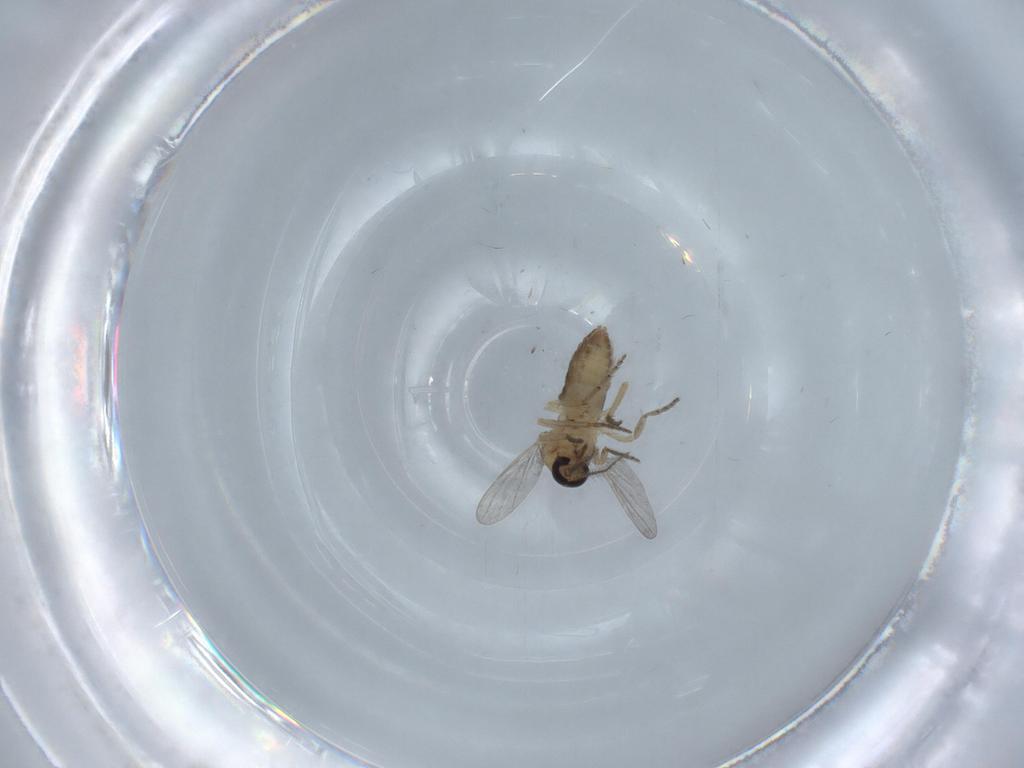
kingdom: Animalia
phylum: Arthropoda
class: Insecta
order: Diptera
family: Ceratopogonidae
